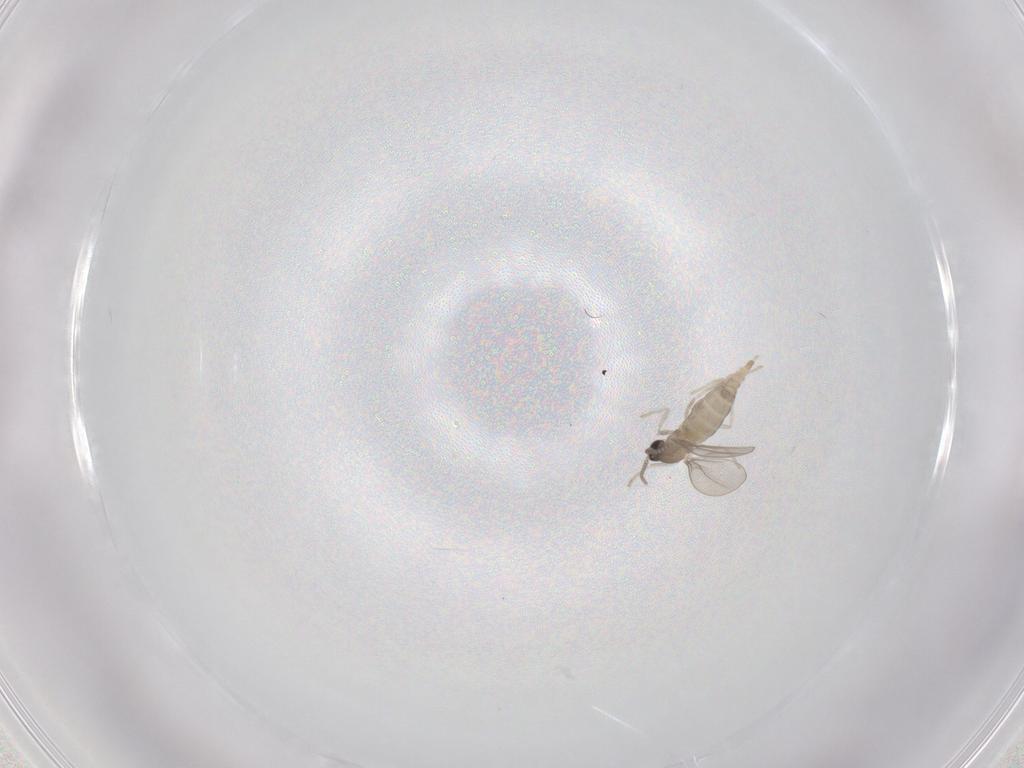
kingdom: Animalia
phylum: Arthropoda
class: Insecta
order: Diptera
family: Cecidomyiidae
